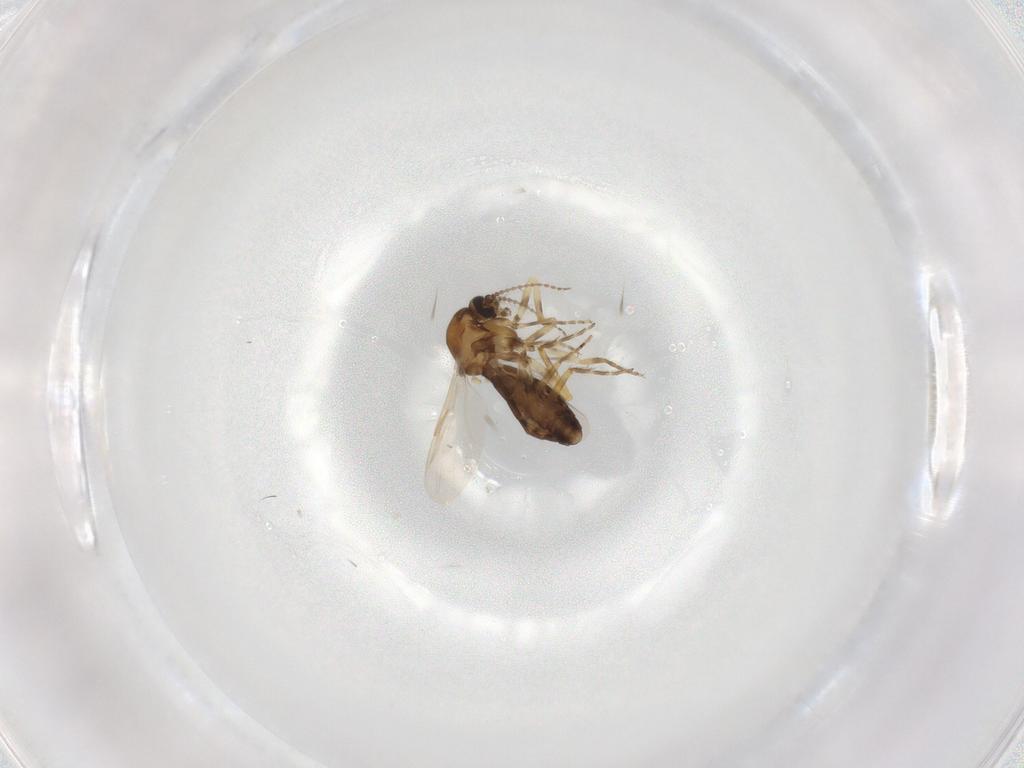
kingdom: Animalia
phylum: Arthropoda
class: Insecta
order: Diptera
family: Ceratopogonidae
